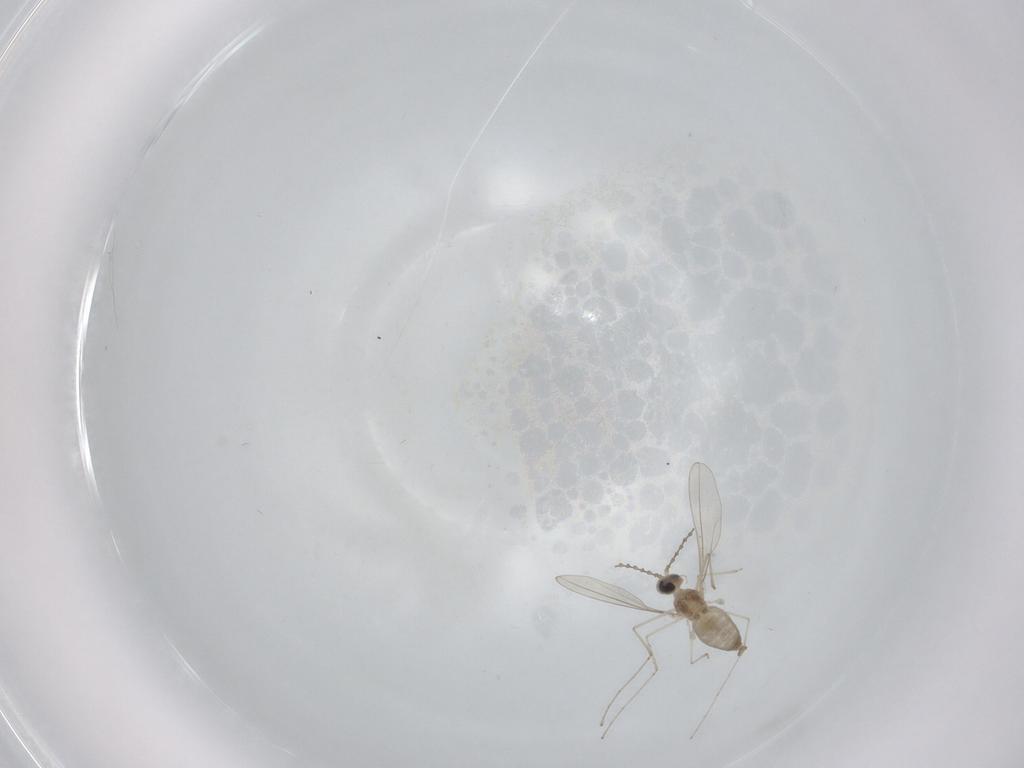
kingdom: Animalia
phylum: Arthropoda
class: Insecta
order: Diptera
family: Cecidomyiidae
